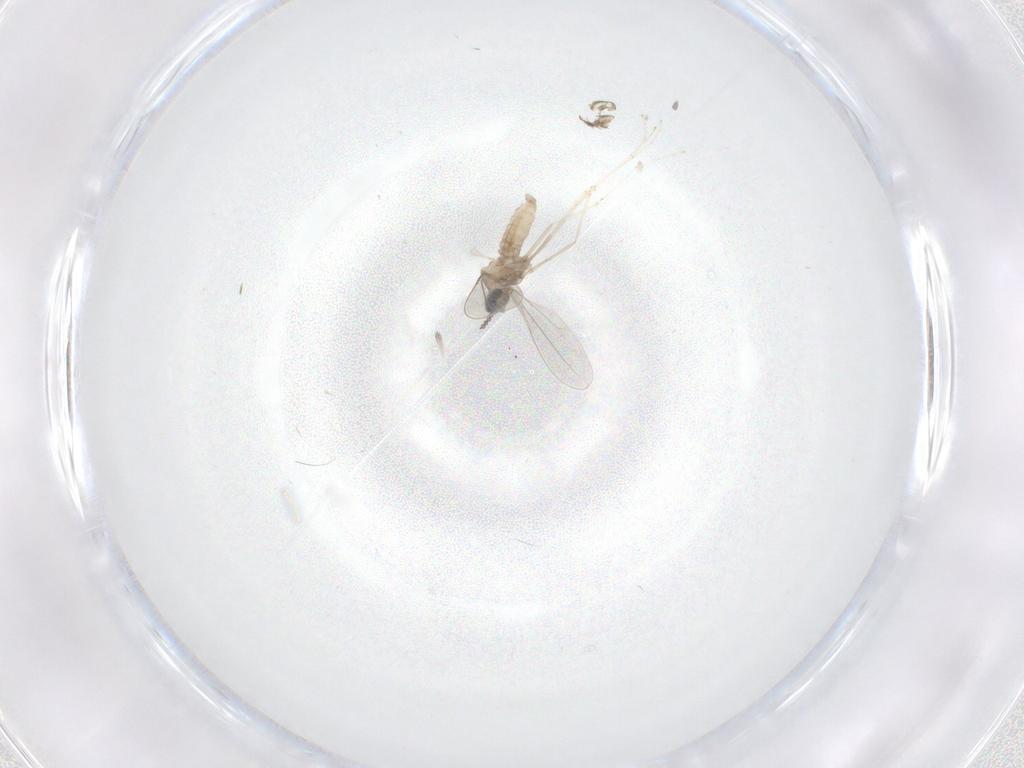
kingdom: Animalia
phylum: Arthropoda
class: Insecta
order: Diptera
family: Cecidomyiidae
